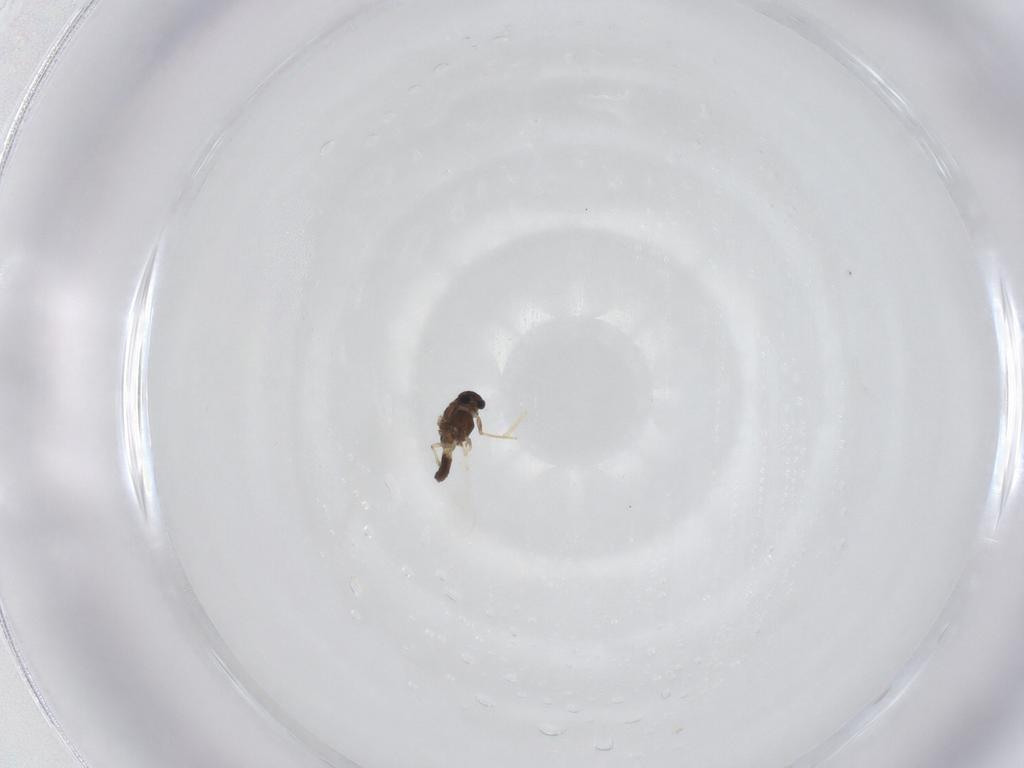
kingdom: Animalia
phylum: Arthropoda
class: Insecta
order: Diptera
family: Chironomidae
